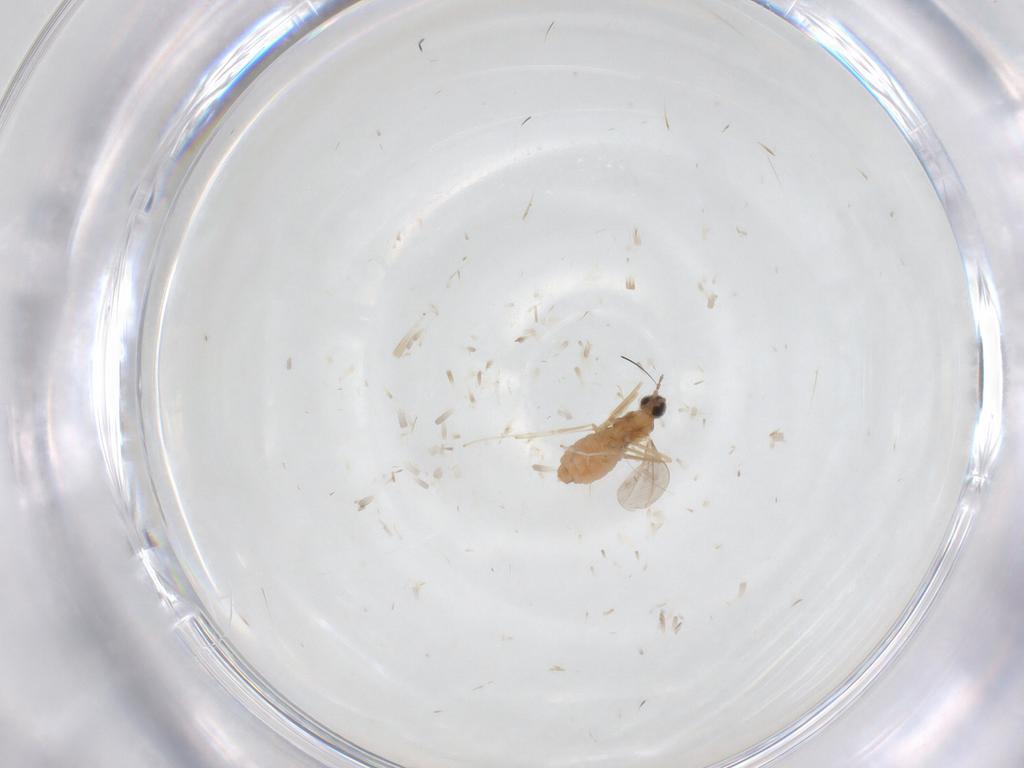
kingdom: Animalia
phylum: Arthropoda
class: Insecta
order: Diptera
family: Cecidomyiidae
